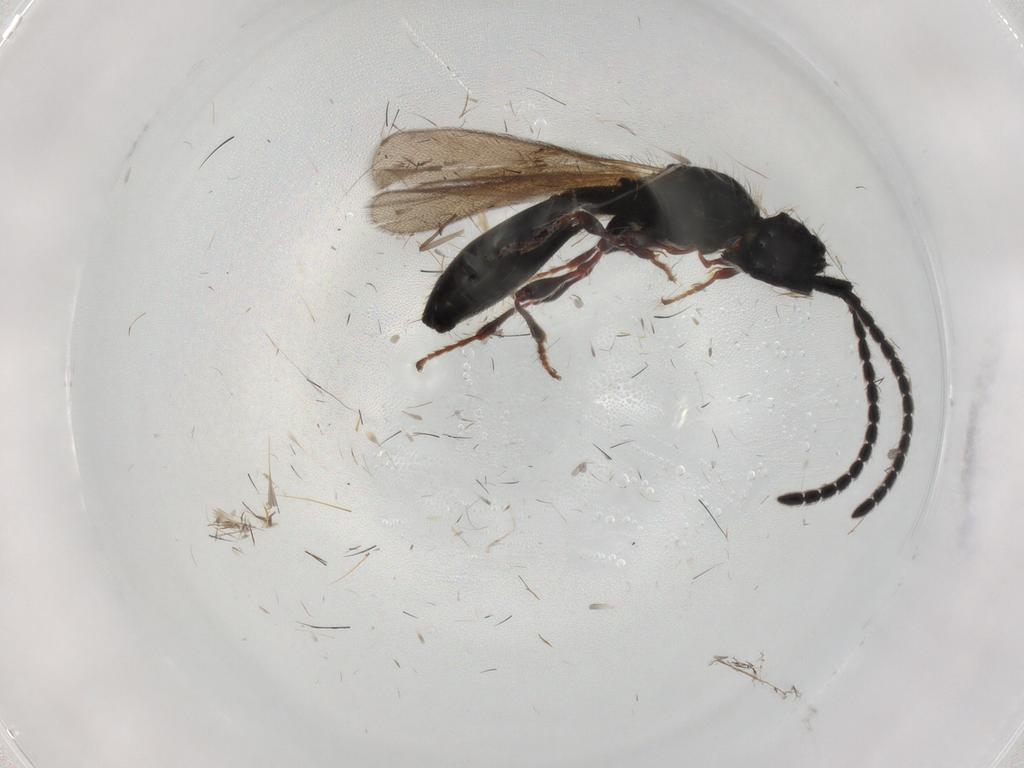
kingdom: Animalia
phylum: Arthropoda
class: Insecta
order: Hymenoptera
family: Diapriidae
